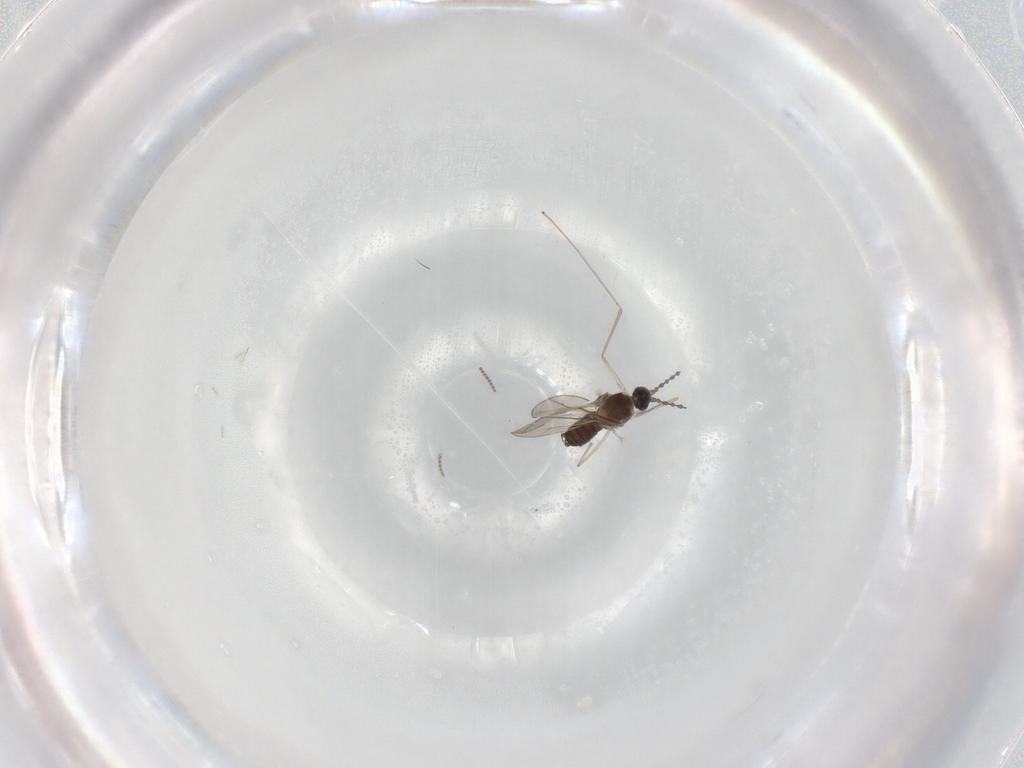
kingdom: Animalia
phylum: Arthropoda
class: Insecta
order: Diptera
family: Cecidomyiidae
